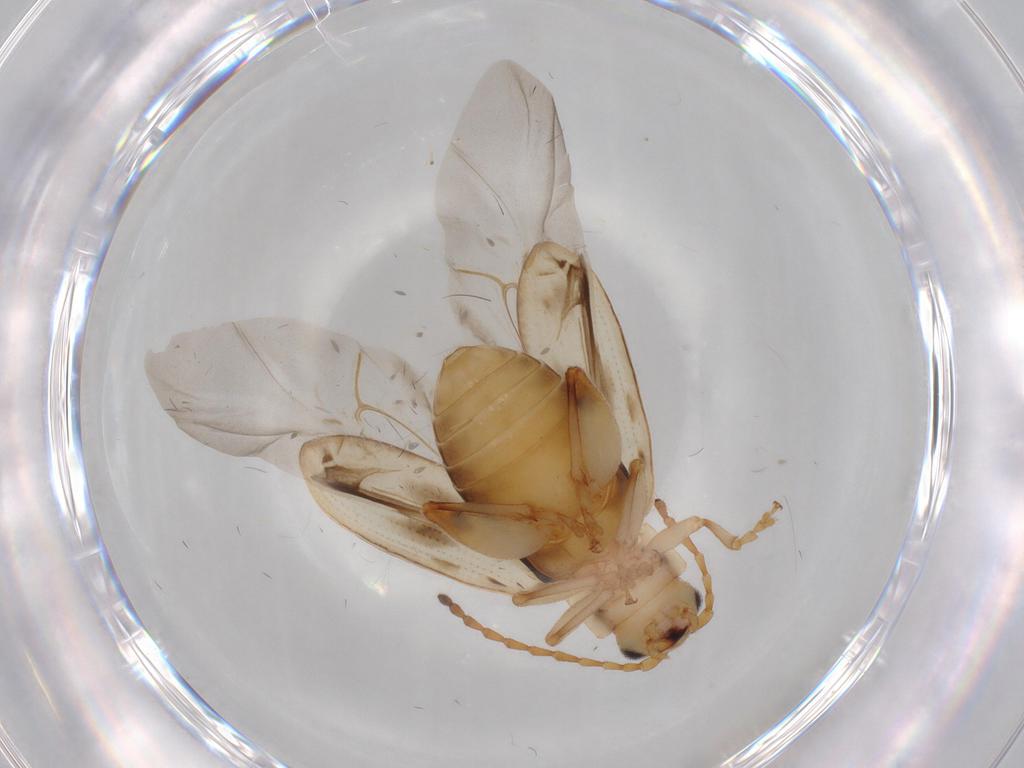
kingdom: Animalia
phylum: Arthropoda
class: Insecta
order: Coleoptera
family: Chrysomelidae
